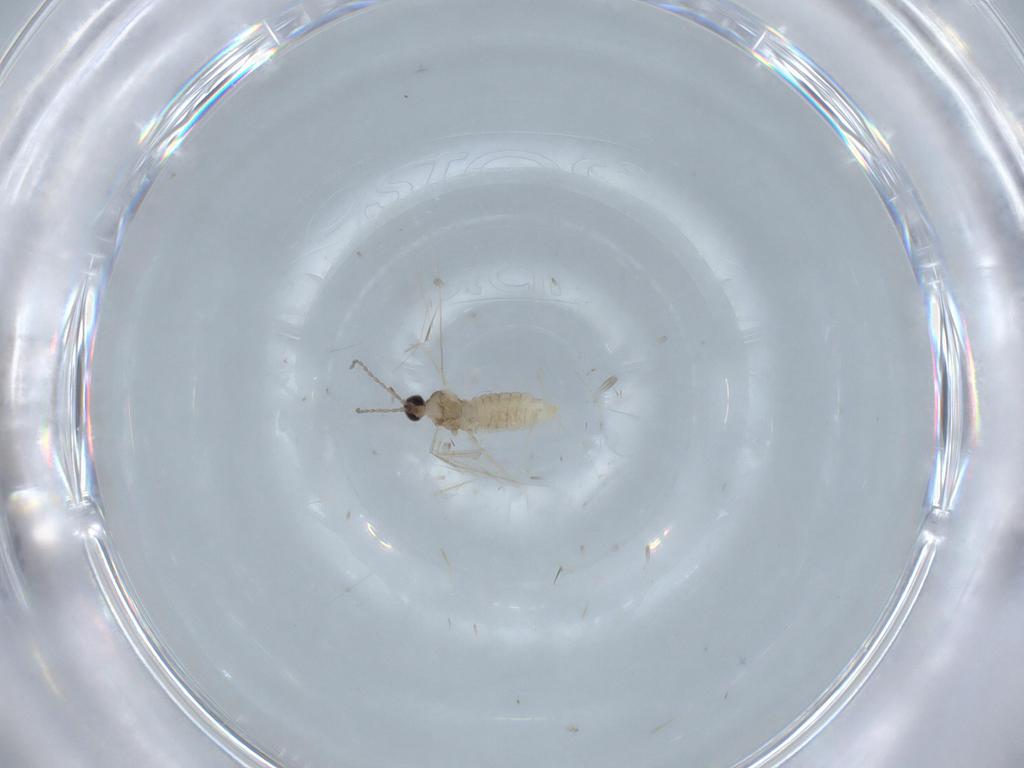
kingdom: Animalia
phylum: Arthropoda
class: Insecta
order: Diptera
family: Cecidomyiidae
